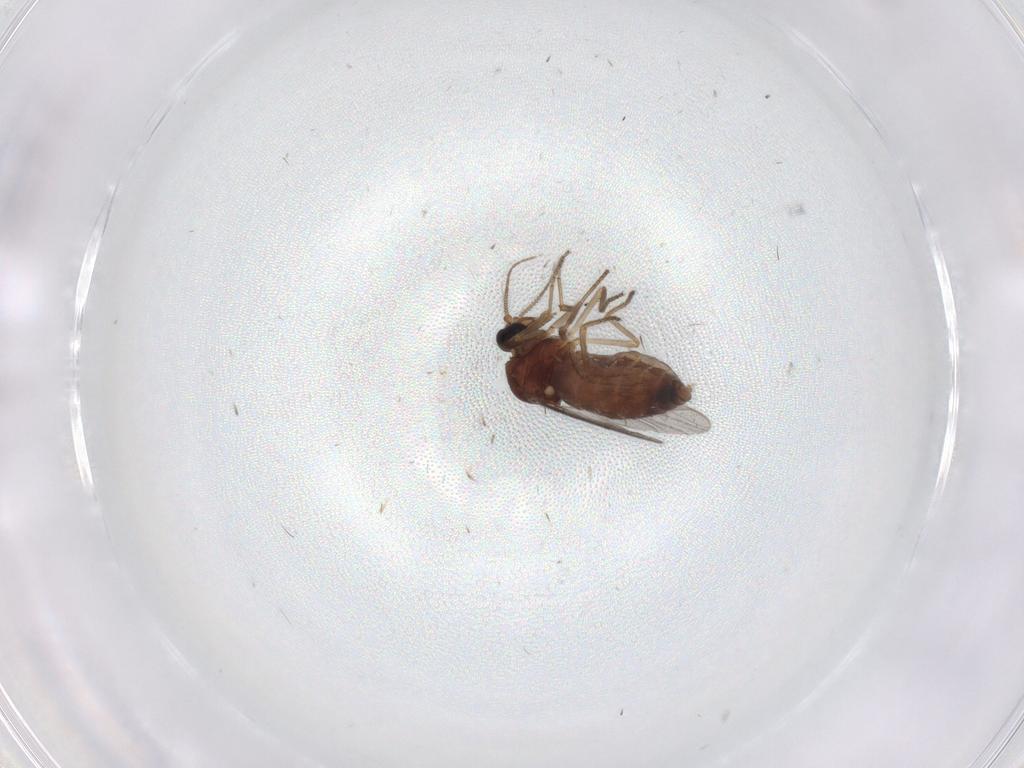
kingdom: Animalia
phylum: Arthropoda
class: Insecta
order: Diptera
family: Ceratopogonidae
